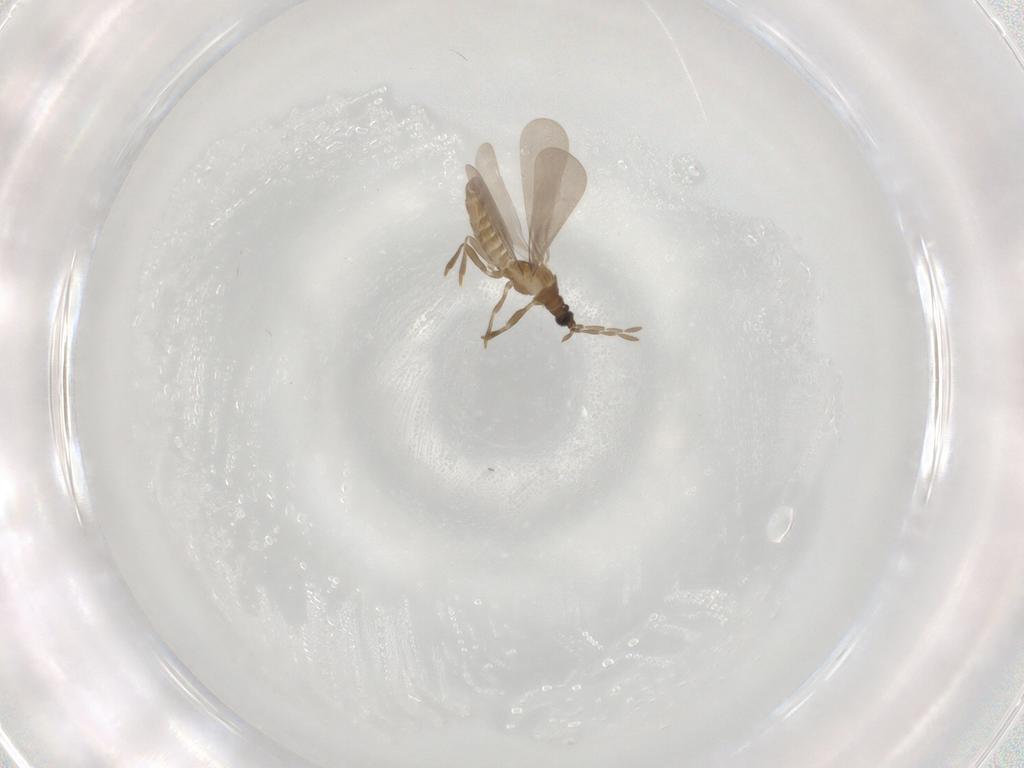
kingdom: Animalia
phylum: Arthropoda
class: Insecta
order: Hemiptera
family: Enicocephalidae
